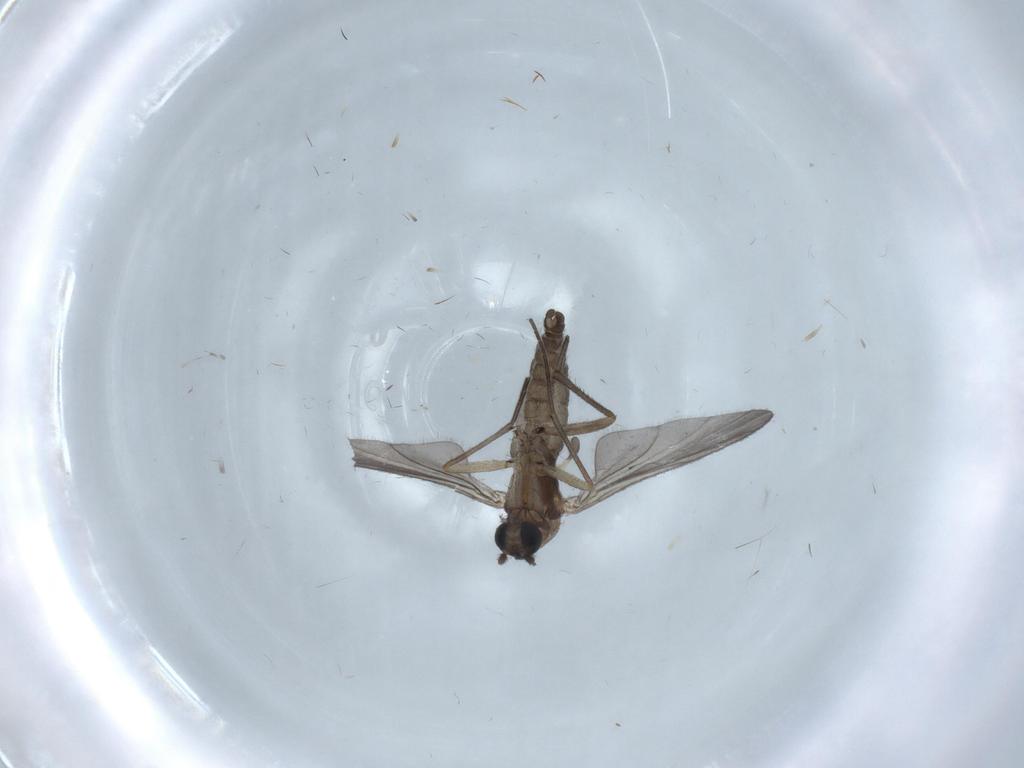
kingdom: Animalia
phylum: Arthropoda
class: Insecta
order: Diptera
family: Sciaridae
